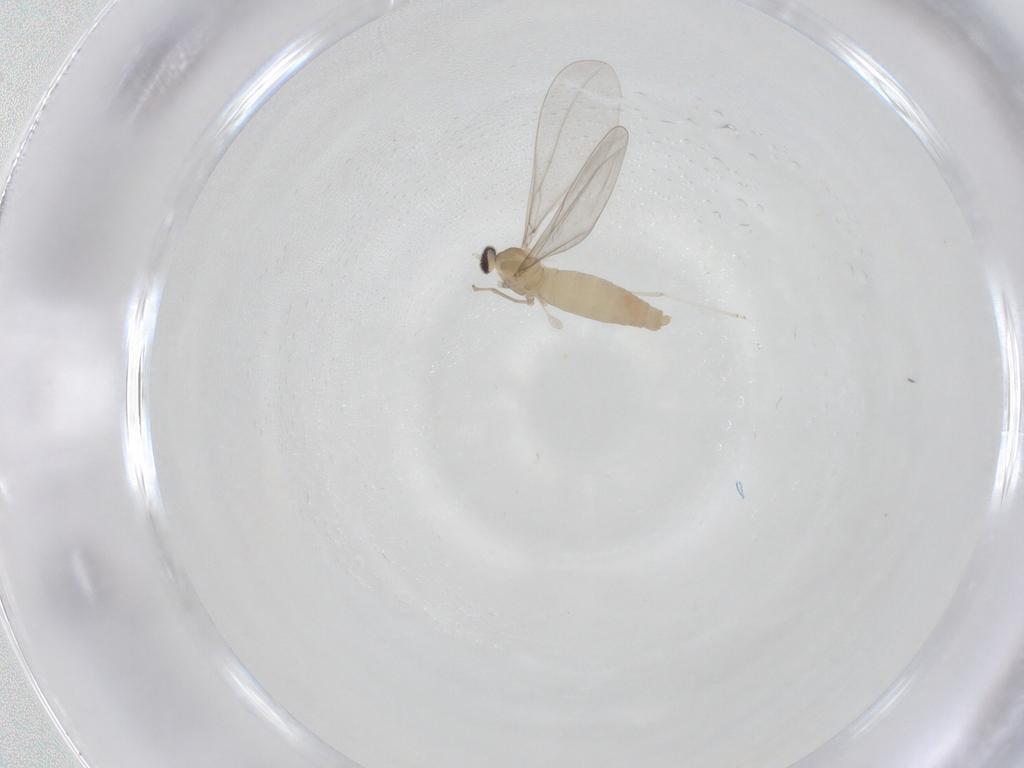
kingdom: Animalia
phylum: Arthropoda
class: Insecta
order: Diptera
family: Cecidomyiidae
